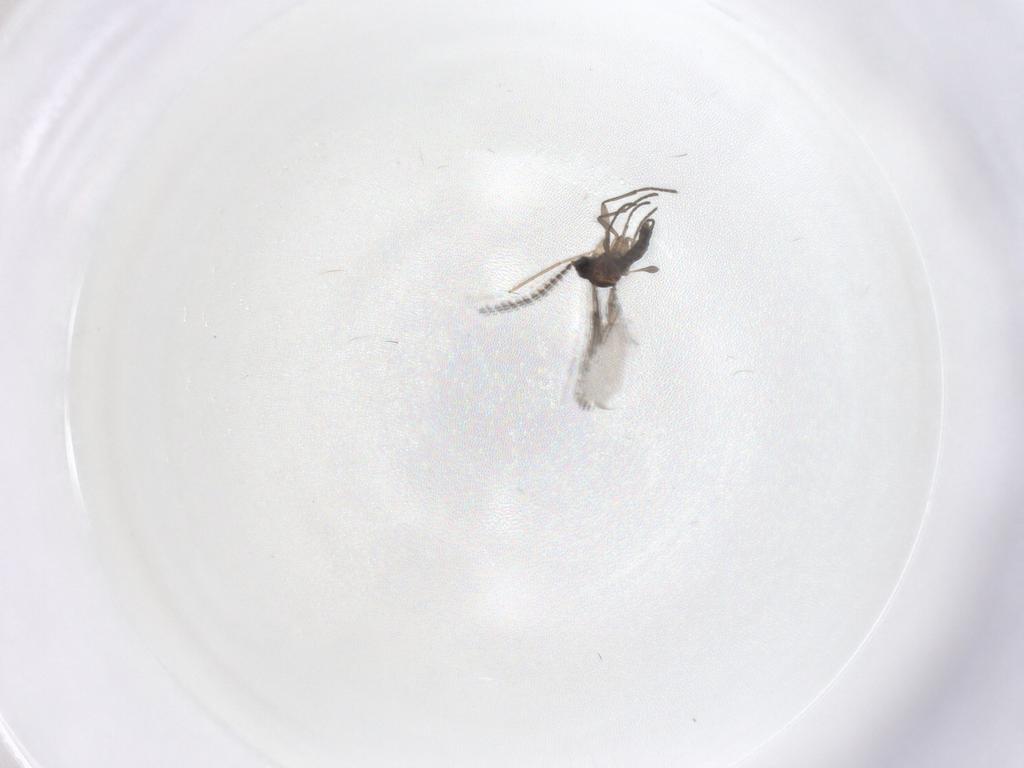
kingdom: Animalia
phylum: Arthropoda
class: Insecta
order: Diptera
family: Sciaridae
